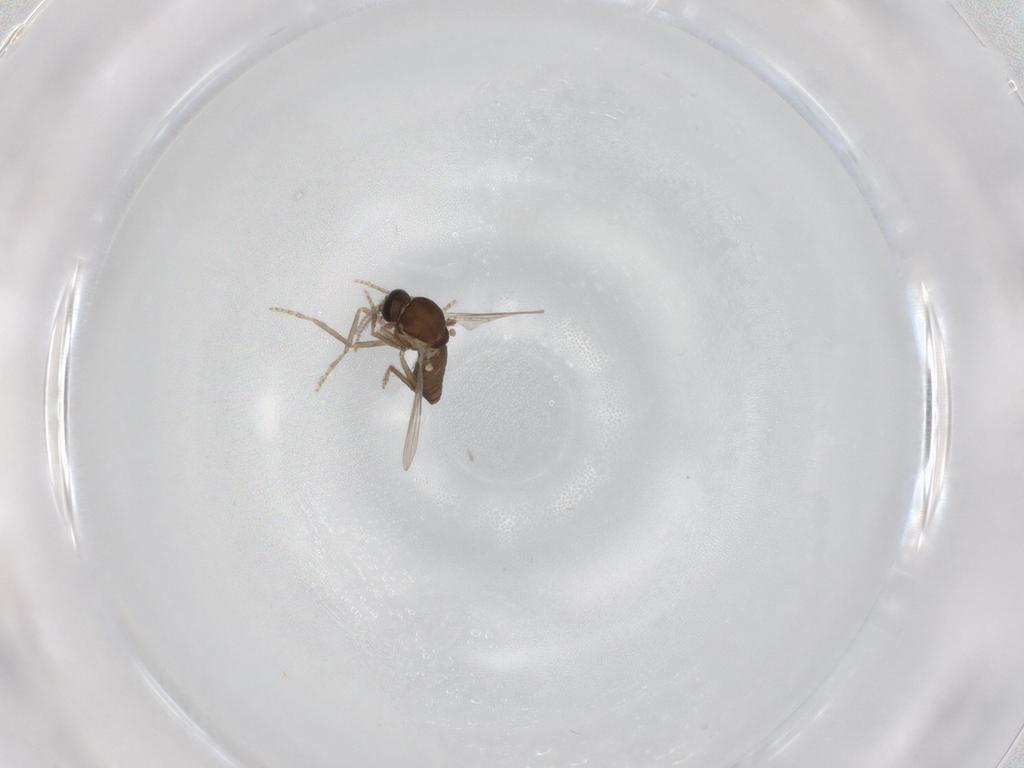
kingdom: Animalia
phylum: Arthropoda
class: Insecta
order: Diptera
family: Ceratopogonidae
